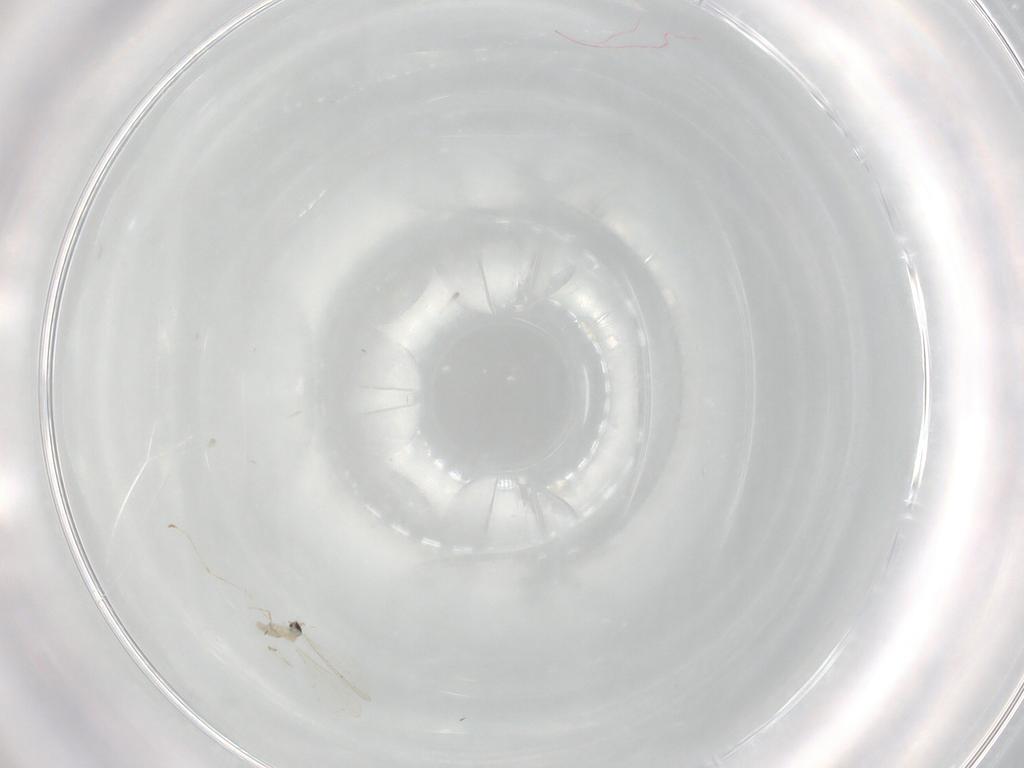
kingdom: Animalia
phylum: Arthropoda
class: Insecta
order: Diptera
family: Cecidomyiidae
